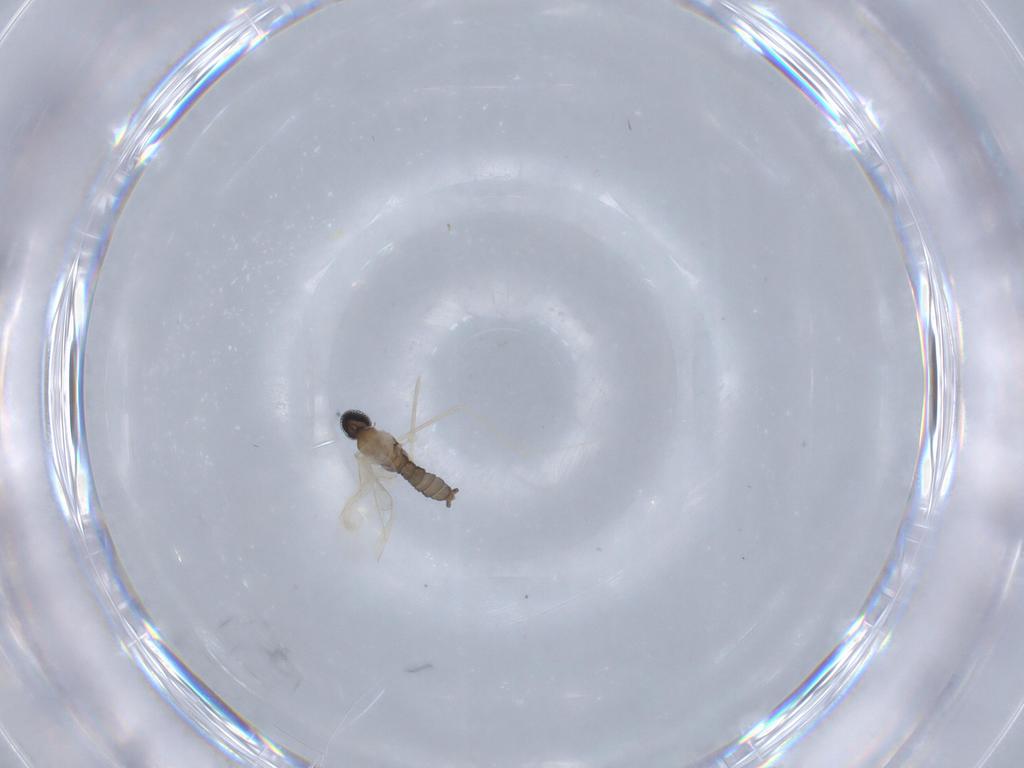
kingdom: Animalia
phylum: Arthropoda
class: Insecta
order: Diptera
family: Cecidomyiidae
